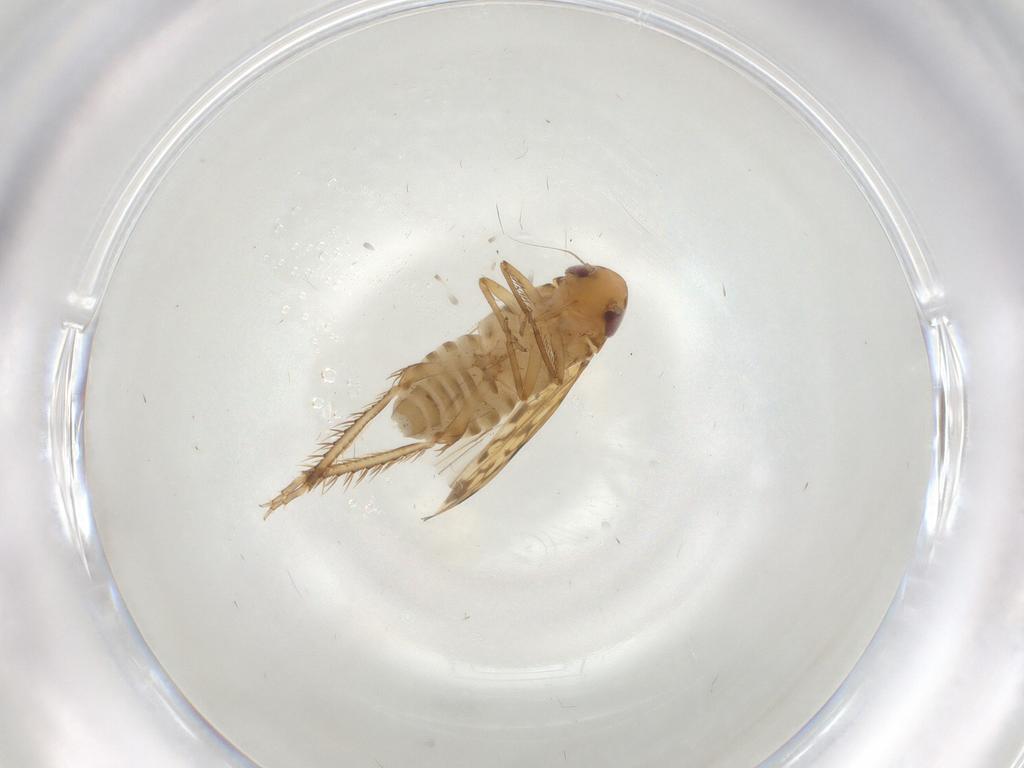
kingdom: Animalia
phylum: Arthropoda
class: Insecta
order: Hemiptera
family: Cicadellidae
